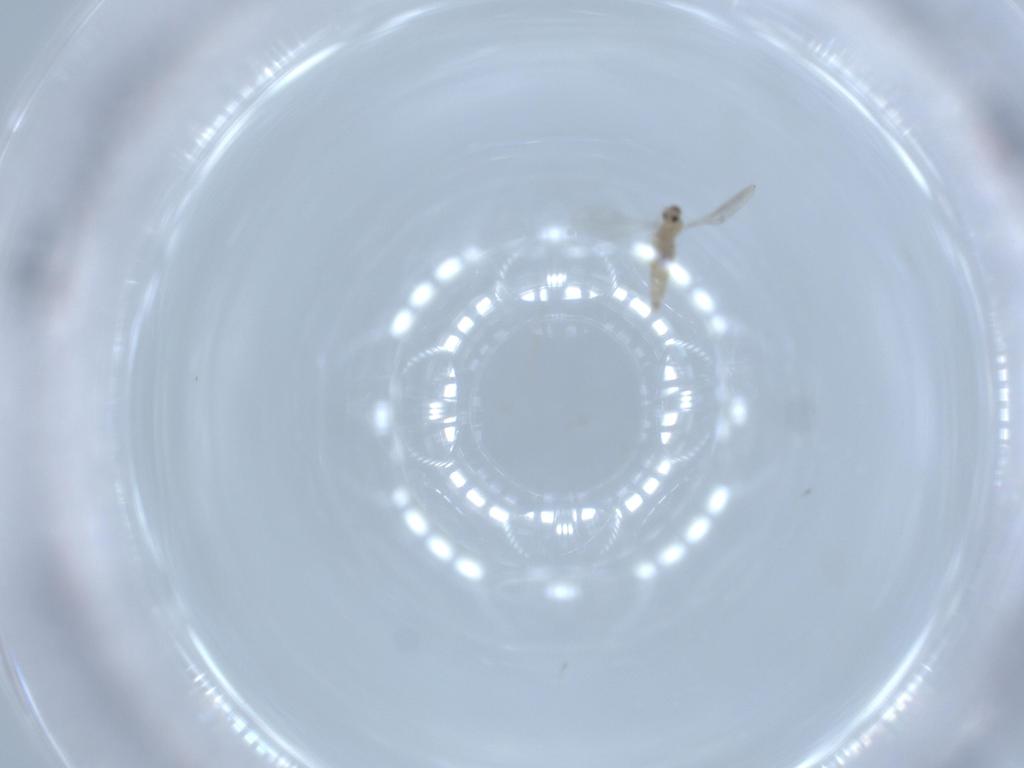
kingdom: Animalia
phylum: Arthropoda
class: Insecta
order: Diptera
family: Cecidomyiidae
